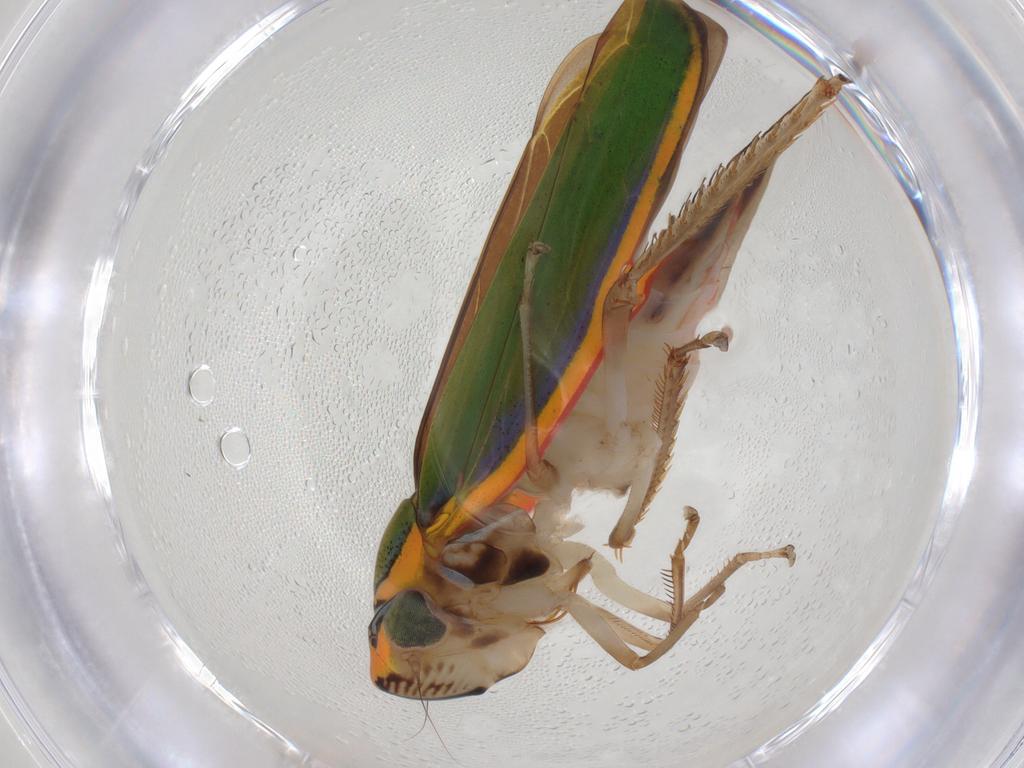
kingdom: Animalia
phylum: Arthropoda
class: Insecta
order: Hemiptera
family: Cicadellidae
